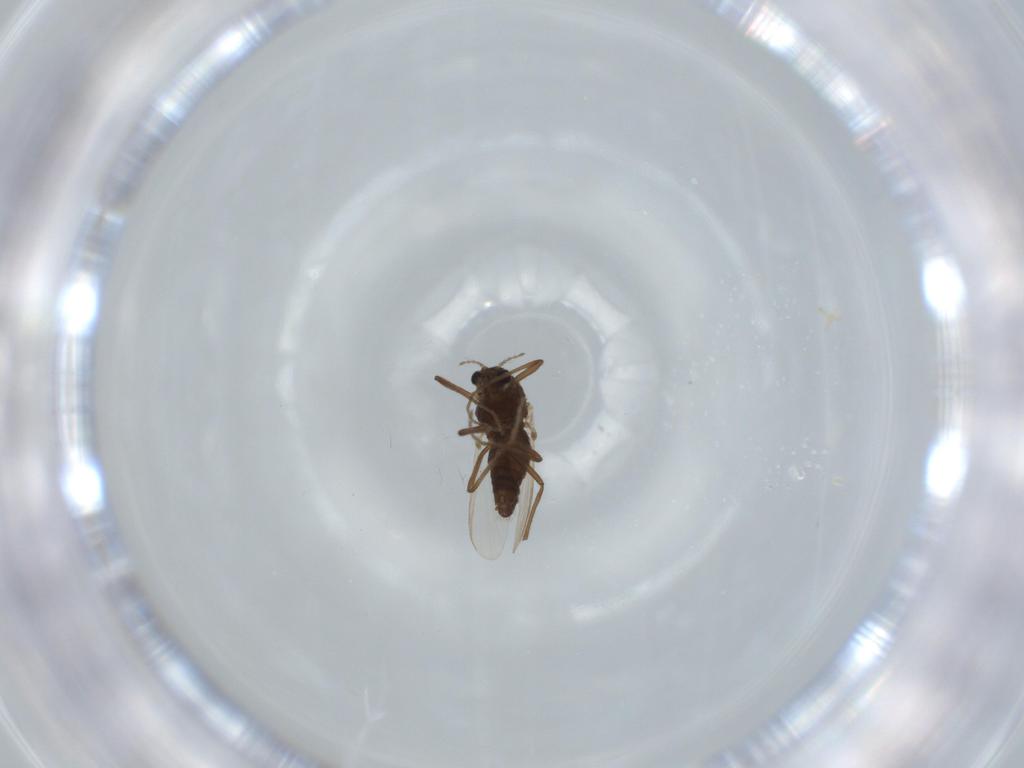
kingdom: Animalia
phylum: Arthropoda
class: Insecta
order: Diptera
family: Chironomidae
